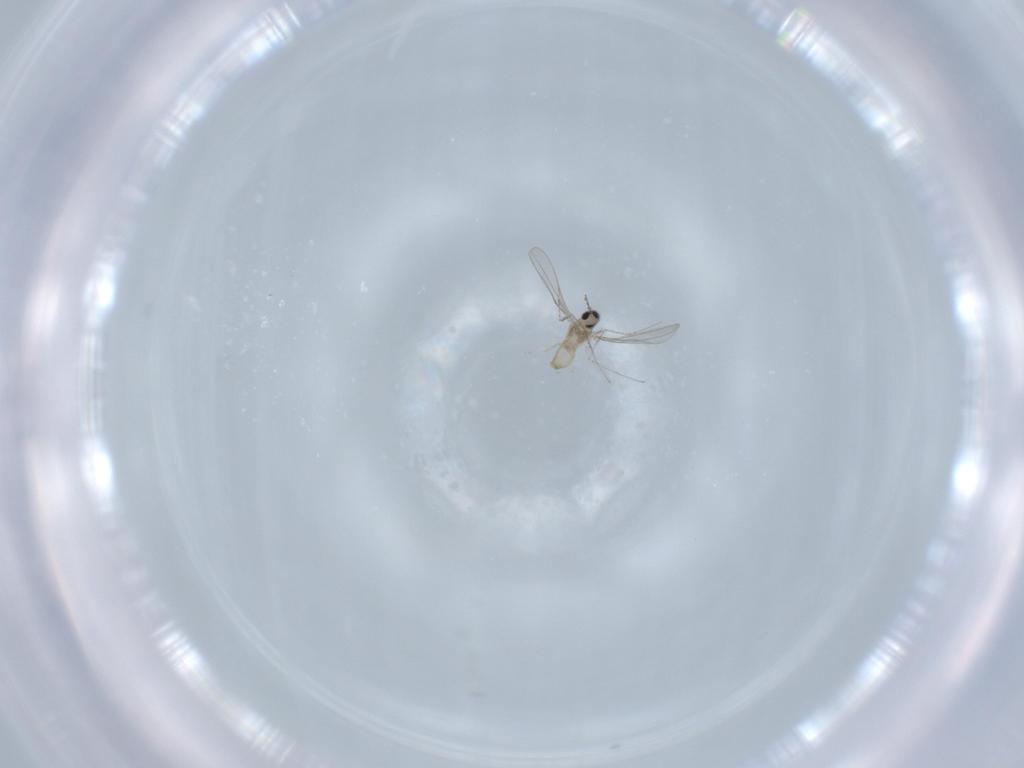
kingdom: Animalia
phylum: Arthropoda
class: Insecta
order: Diptera
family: Cecidomyiidae
